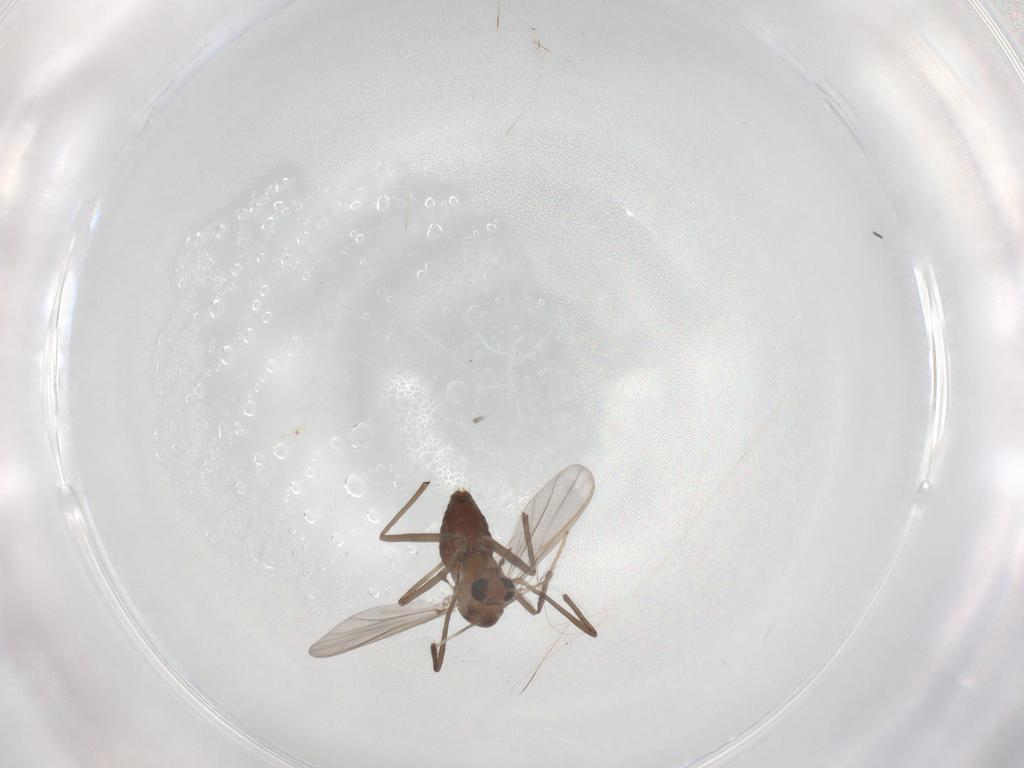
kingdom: Animalia
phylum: Arthropoda
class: Insecta
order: Diptera
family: Chironomidae
